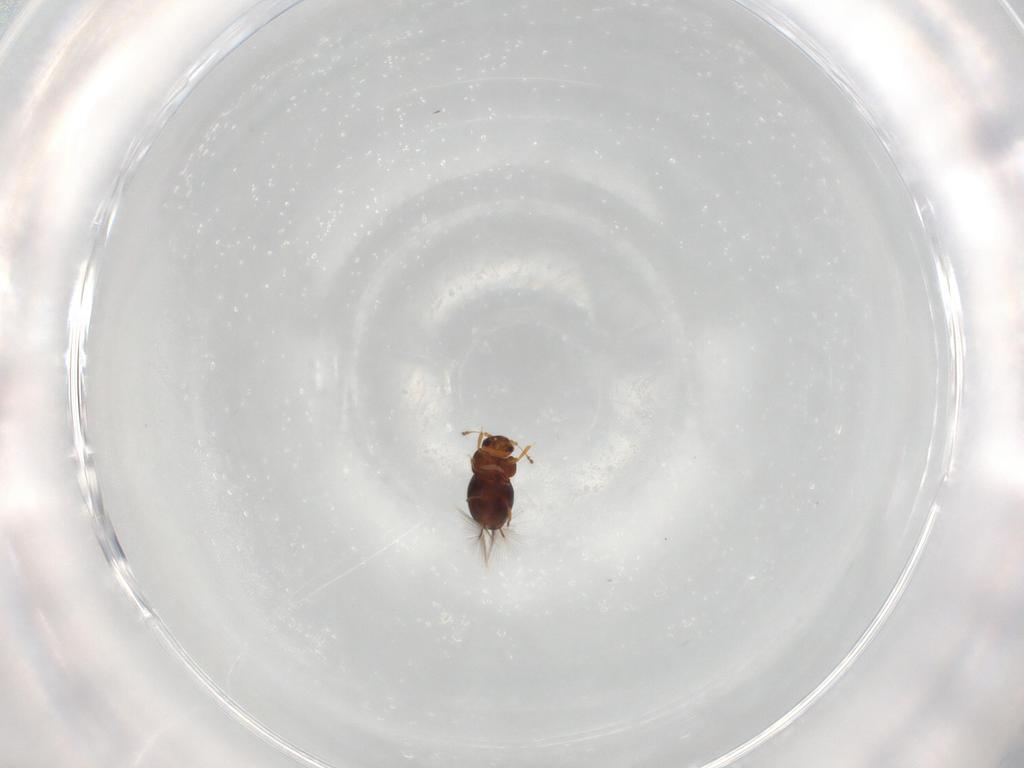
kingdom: Animalia
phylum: Arthropoda
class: Insecta
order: Coleoptera
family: Ptiliidae
